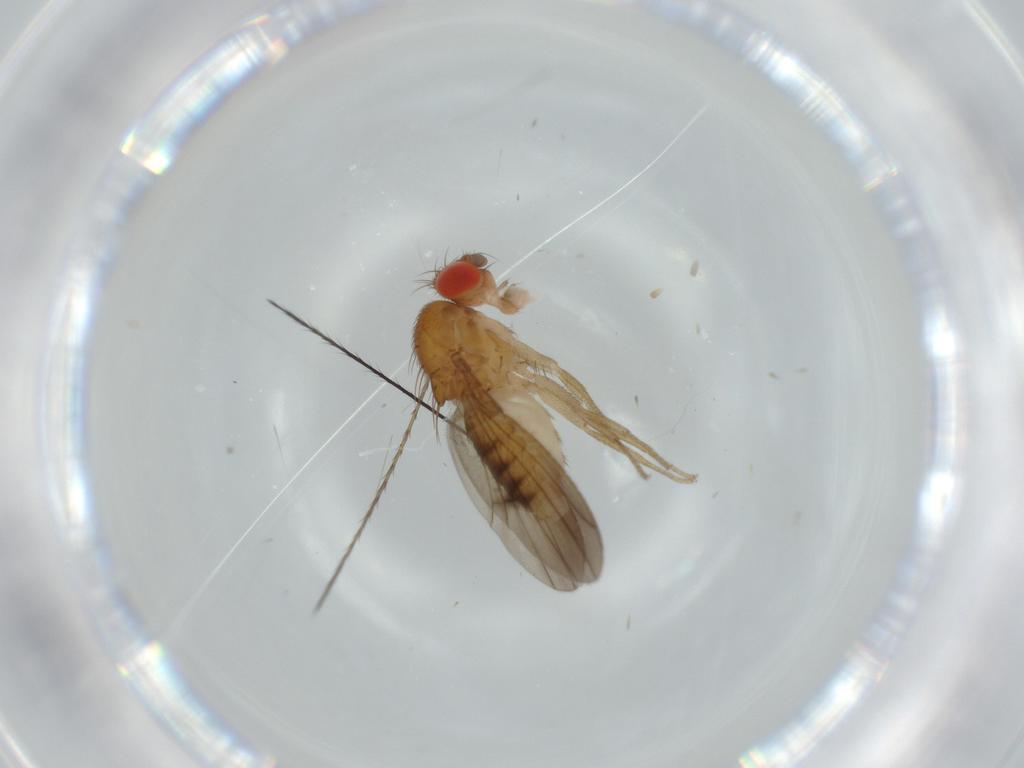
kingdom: Animalia
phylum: Arthropoda
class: Insecta
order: Diptera
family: Drosophilidae
